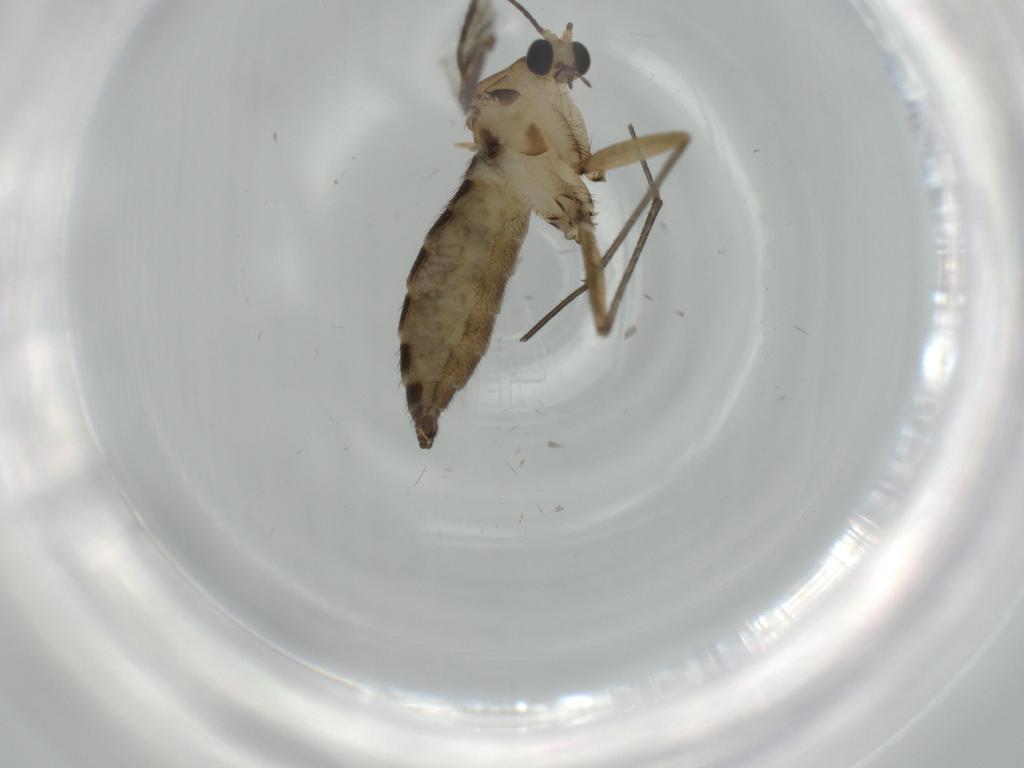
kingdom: Animalia
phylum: Arthropoda
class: Insecta
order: Diptera
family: Sciaridae
